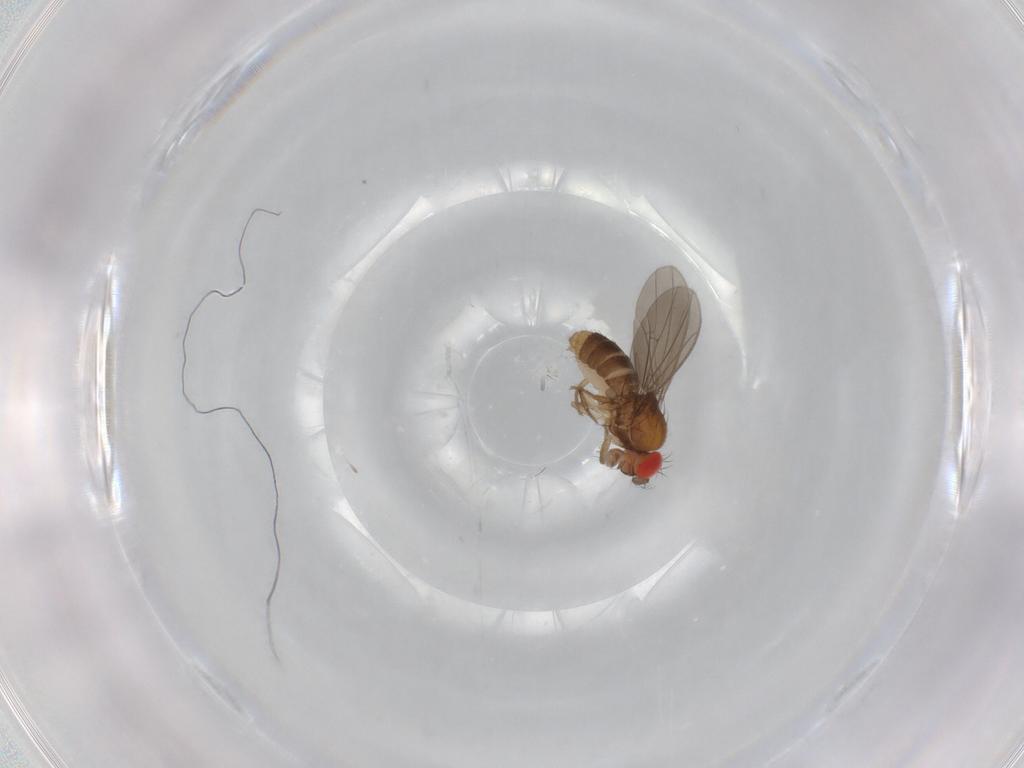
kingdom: Animalia
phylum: Arthropoda
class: Insecta
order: Diptera
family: Drosophilidae
